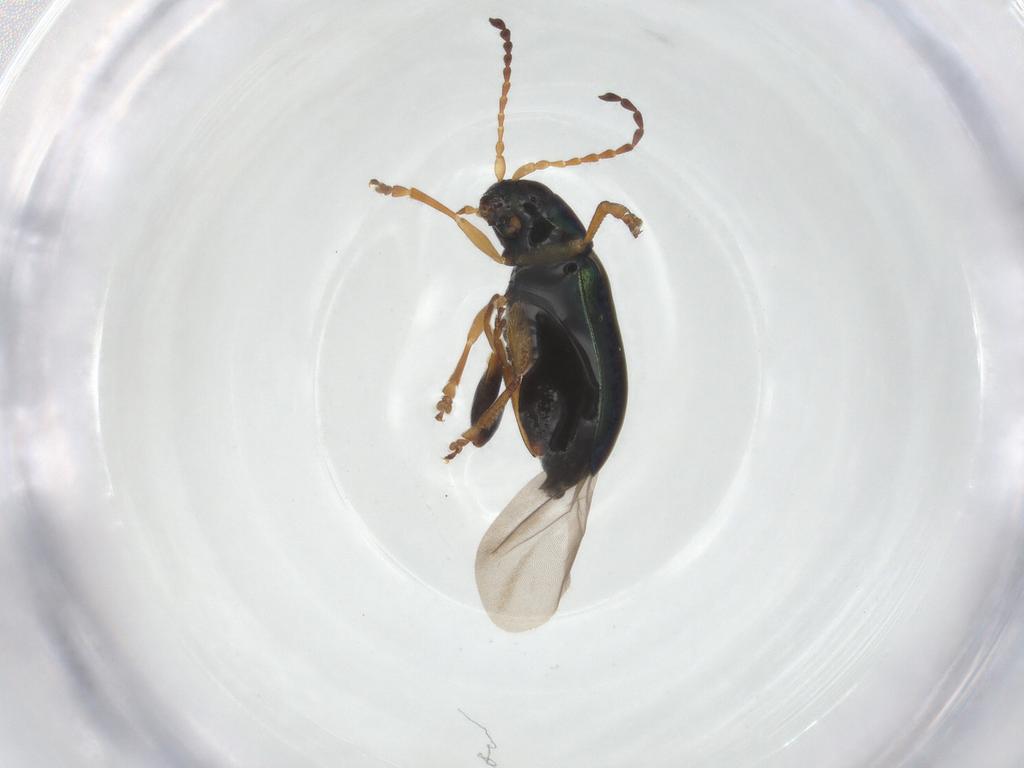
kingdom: Animalia
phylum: Arthropoda
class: Insecta
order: Coleoptera
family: Chrysomelidae
